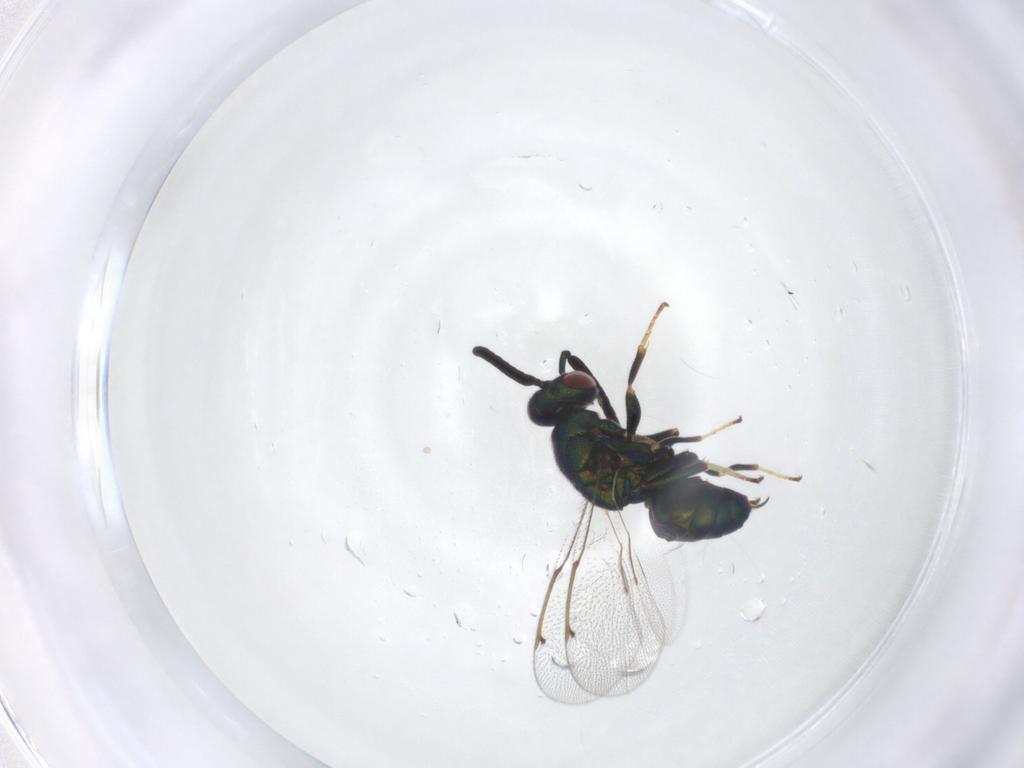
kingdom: Animalia
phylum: Arthropoda
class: Insecta
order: Hymenoptera
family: Torymidae
